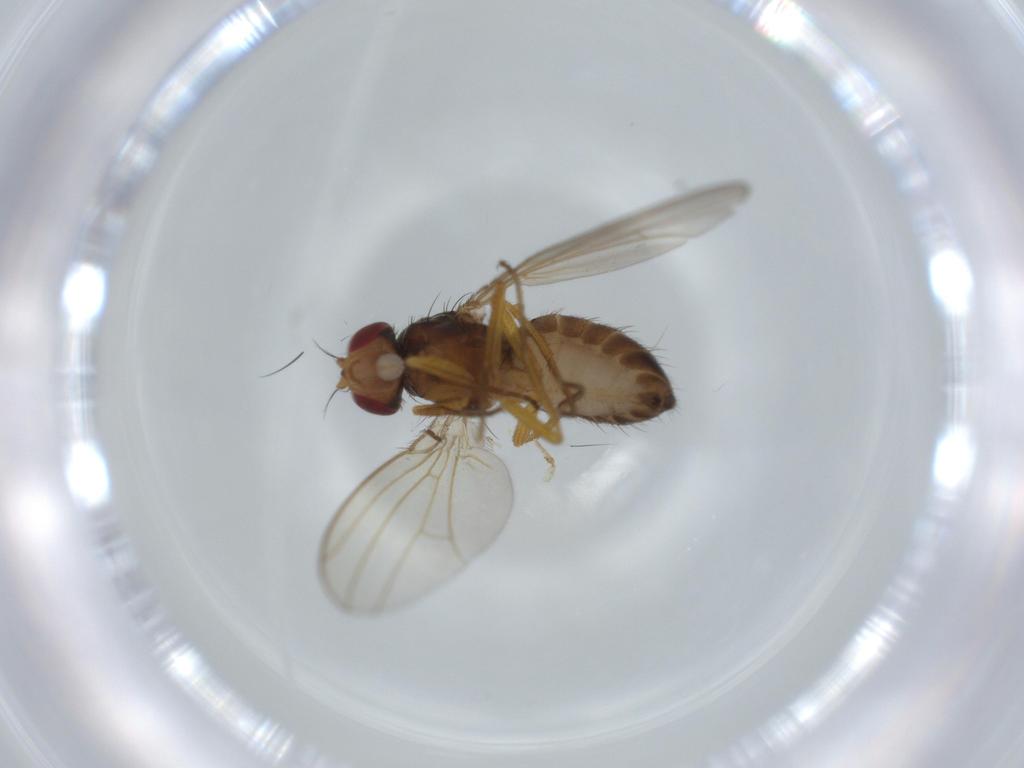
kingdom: Animalia
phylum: Arthropoda
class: Insecta
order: Diptera
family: Drosophilidae
